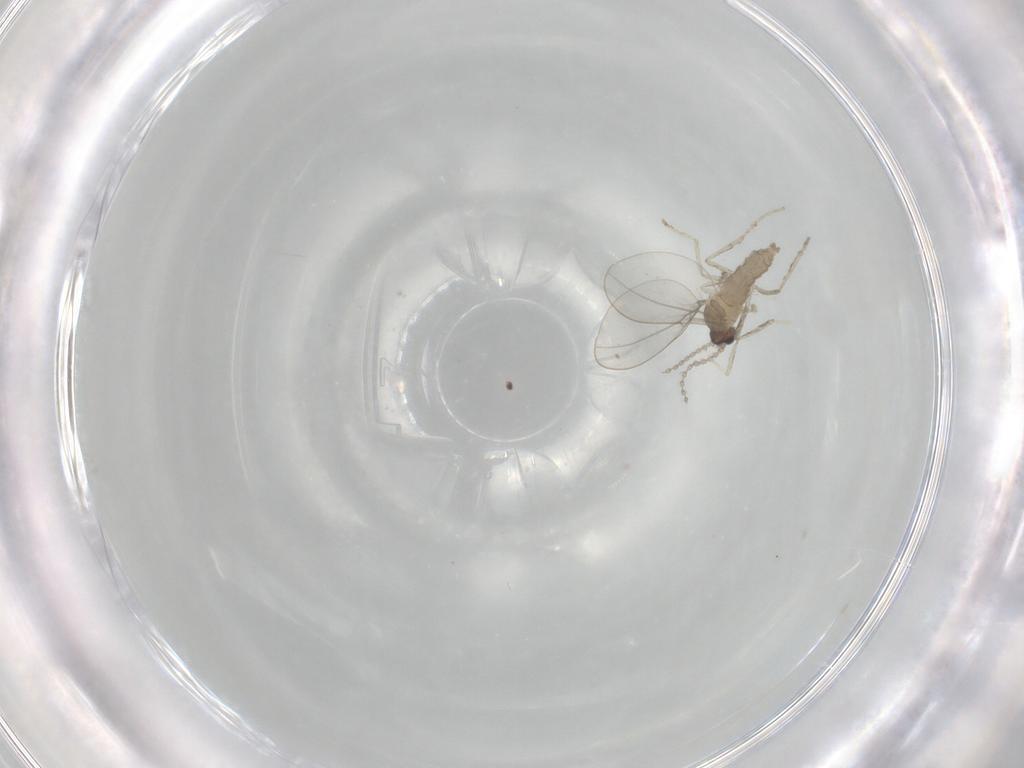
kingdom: Animalia
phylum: Arthropoda
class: Insecta
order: Diptera
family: Cecidomyiidae
